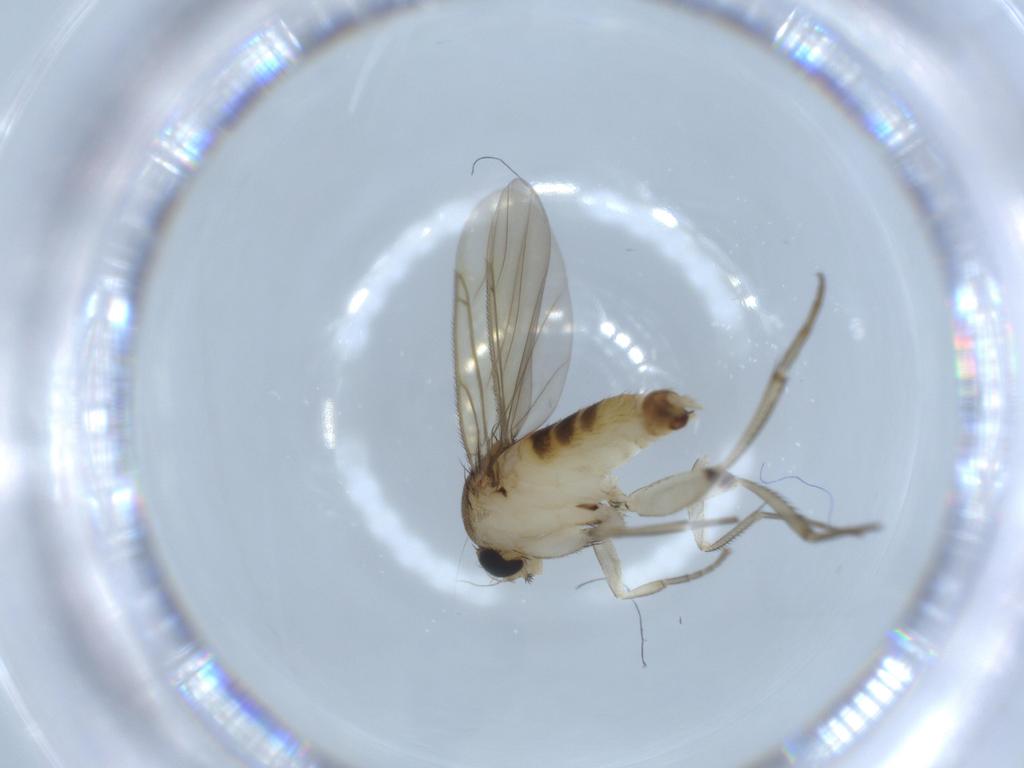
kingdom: Animalia
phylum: Arthropoda
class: Insecta
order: Diptera
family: Phoridae
